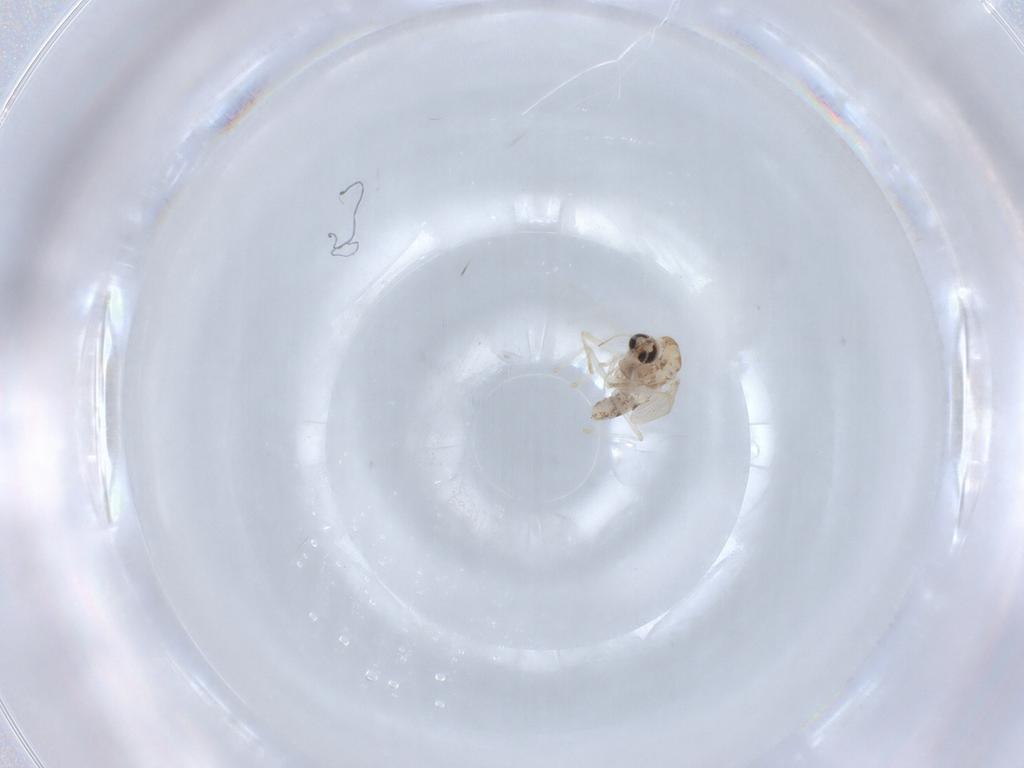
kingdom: Animalia
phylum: Arthropoda
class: Insecta
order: Diptera
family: Chironomidae
